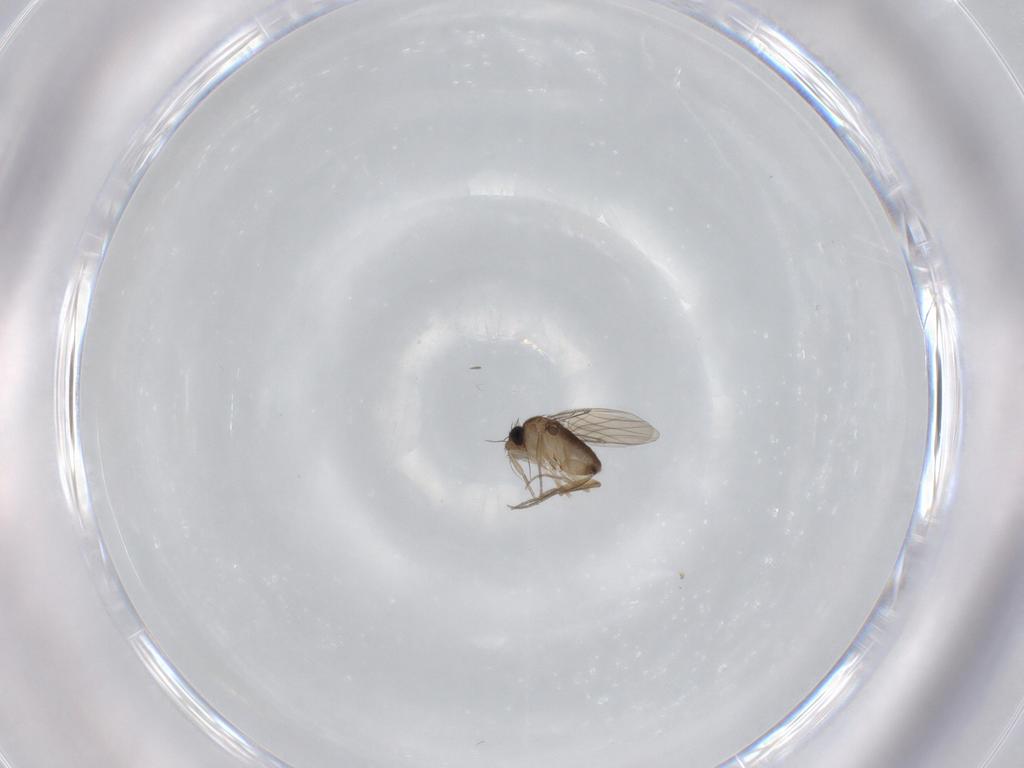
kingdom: Animalia
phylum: Arthropoda
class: Insecta
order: Diptera
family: Phoridae
